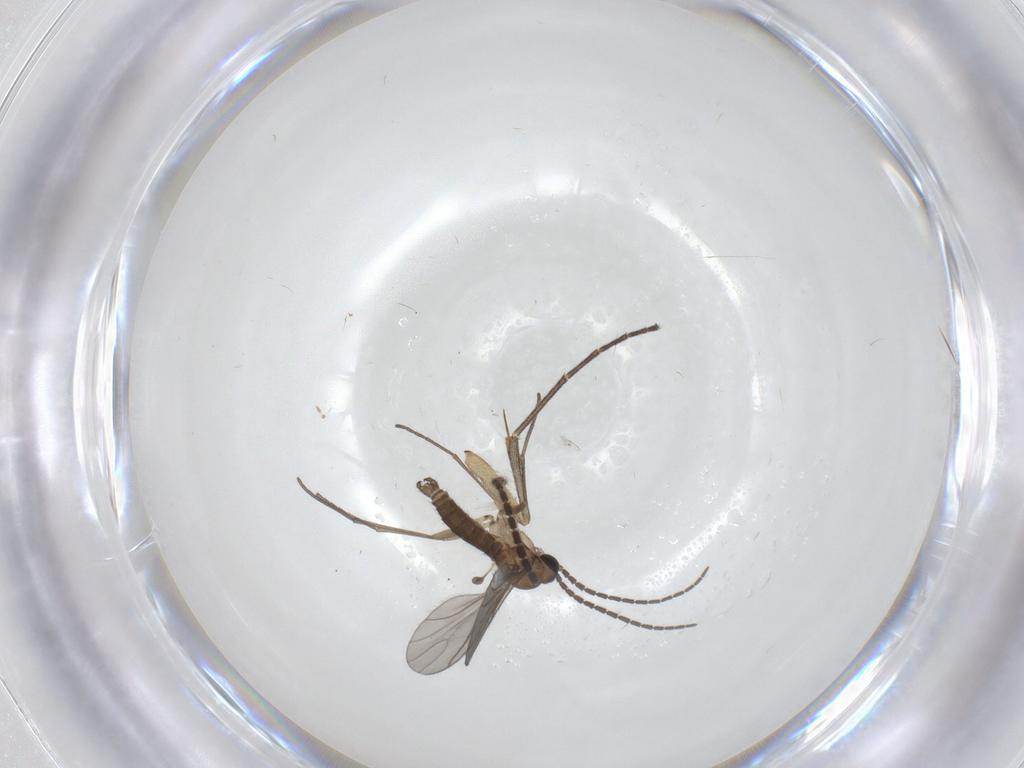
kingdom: Animalia
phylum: Arthropoda
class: Insecta
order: Diptera
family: Sciaridae
